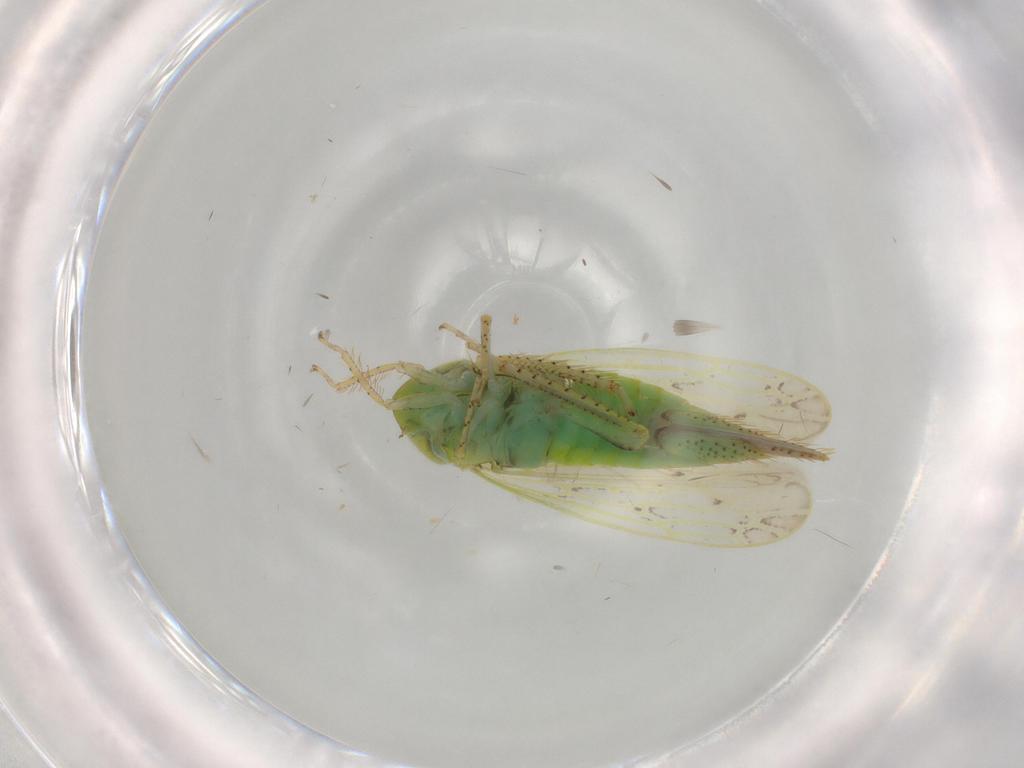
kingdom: Animalia
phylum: Arthropoda
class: Insecta
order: Hemiptera
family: Cicadellidae
